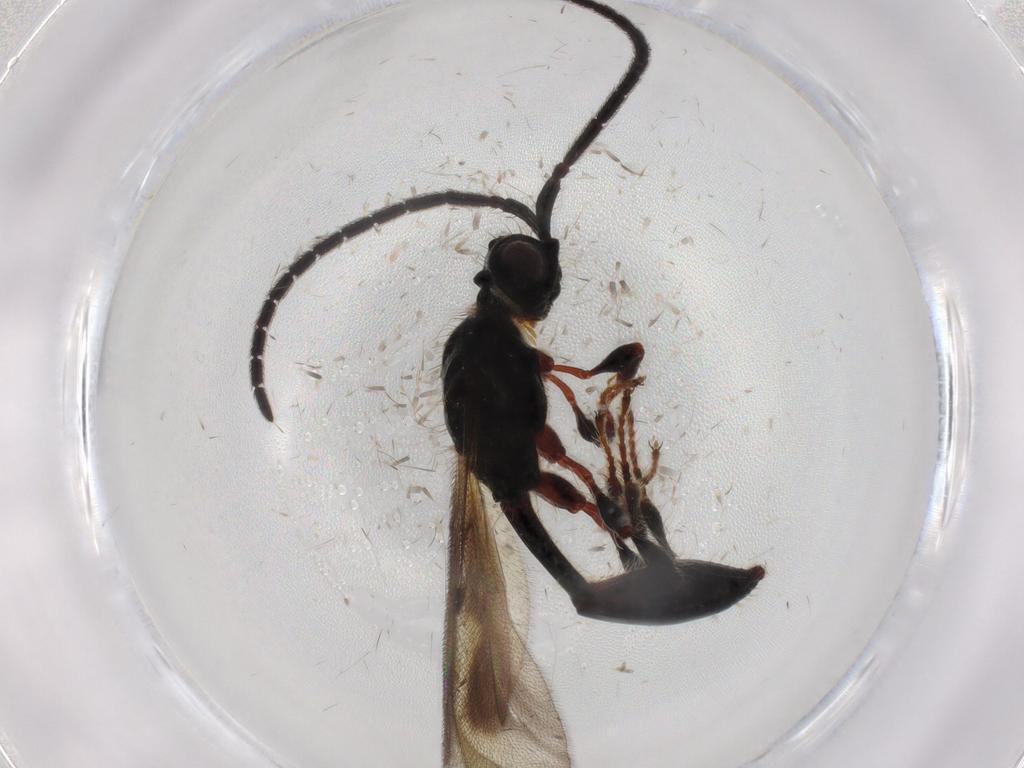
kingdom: Animalia
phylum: Arthropoda
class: Insecta
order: Hymenoptera
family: Diapriidae
